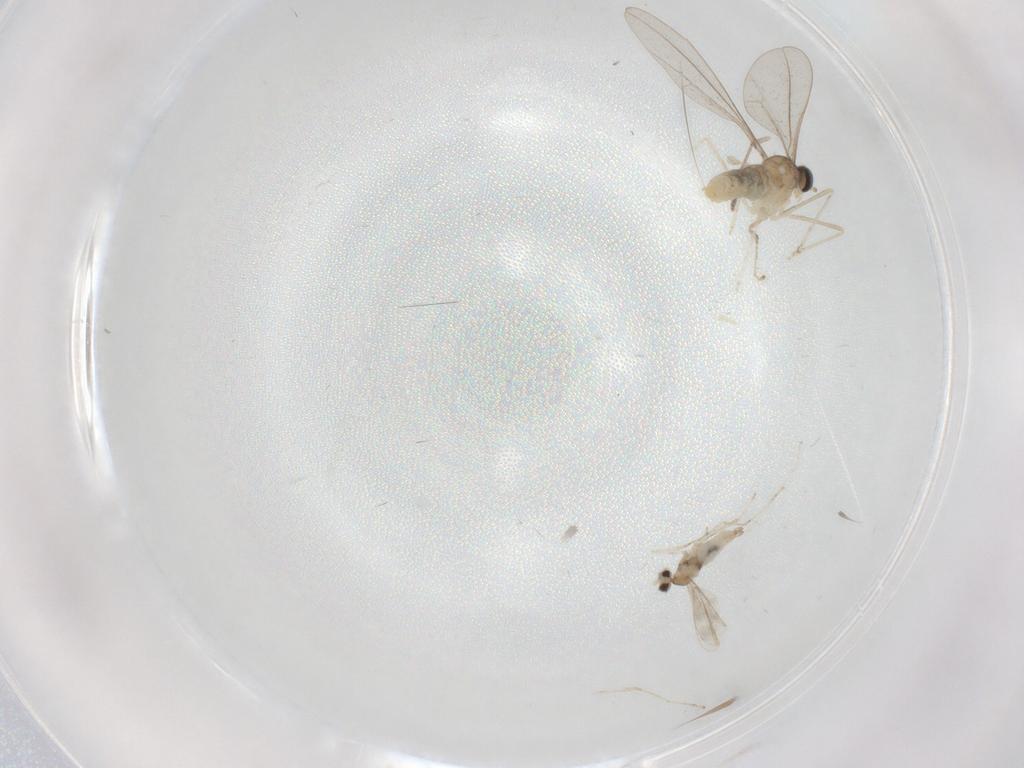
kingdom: Animalia
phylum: Arthropoda
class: Insecta
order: Diptera
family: Cecidomyiidae
